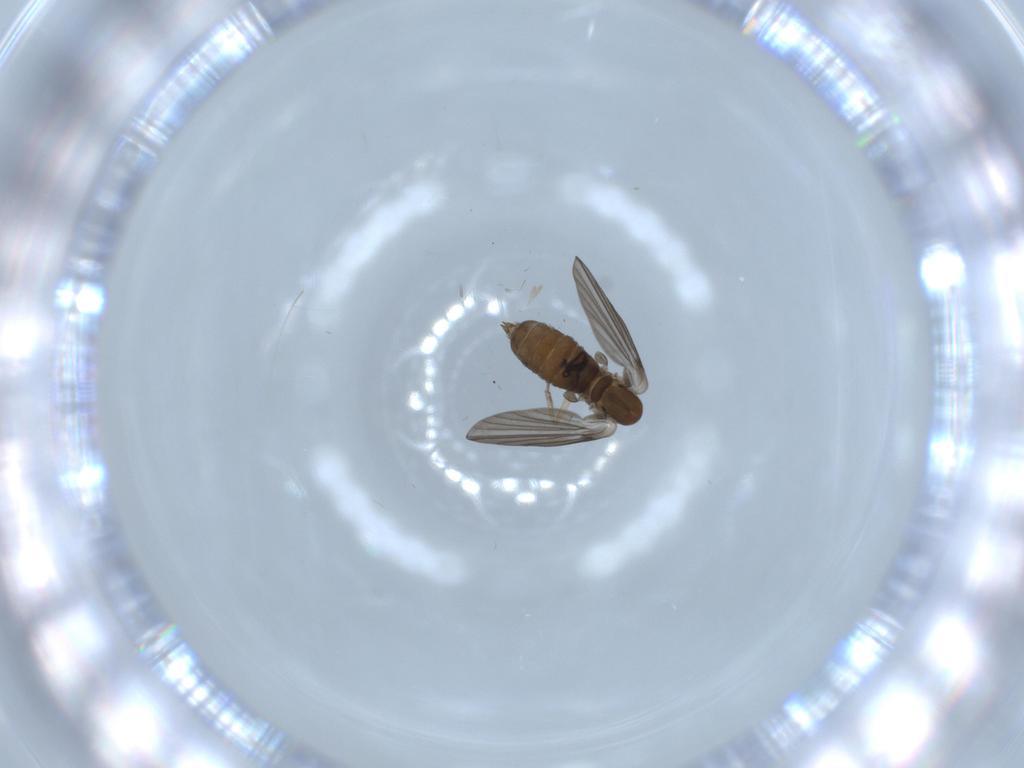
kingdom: Animalia
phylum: Arthropoda
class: Insecta
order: Diptera
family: Psychodidae
